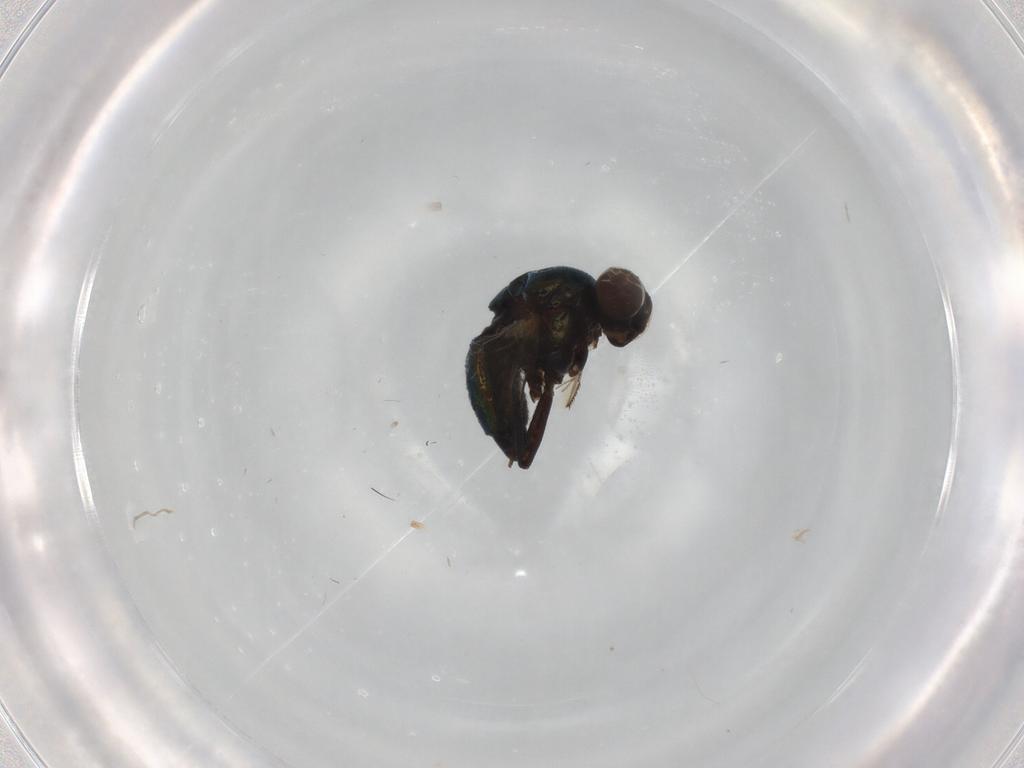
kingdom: Animalia
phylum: Arthropoda
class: Insecta
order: Diptera
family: Agromyzidae
